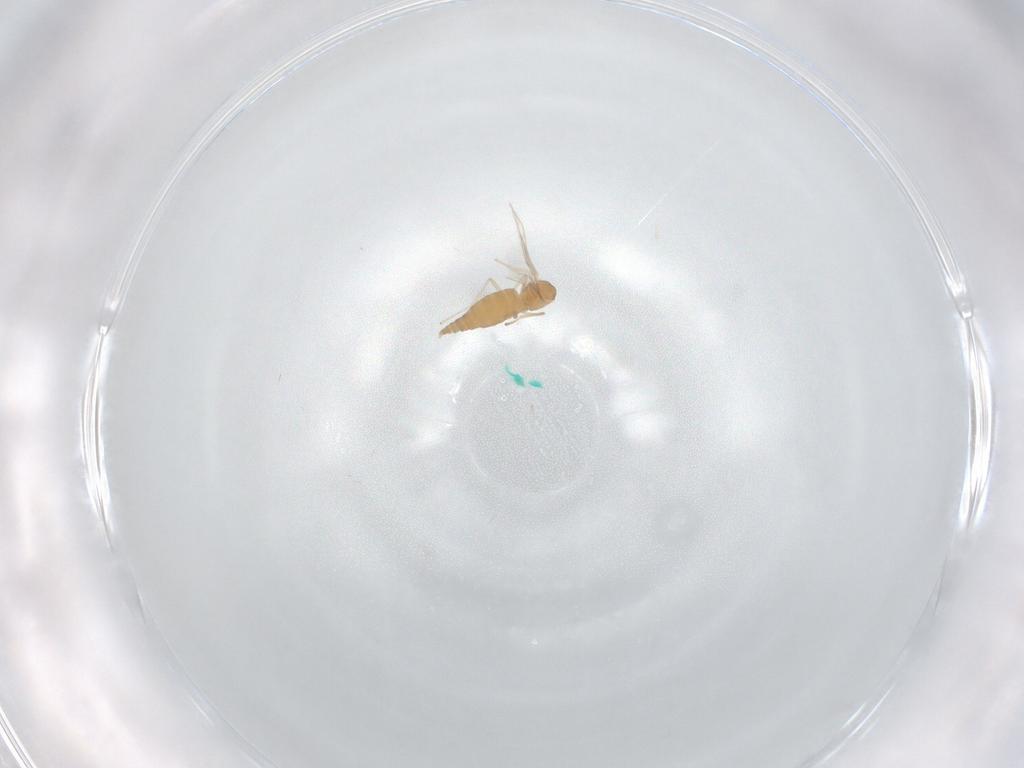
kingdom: Animalia
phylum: Arthropoda
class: Insecta
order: Diptera
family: Cecidomyiidae
